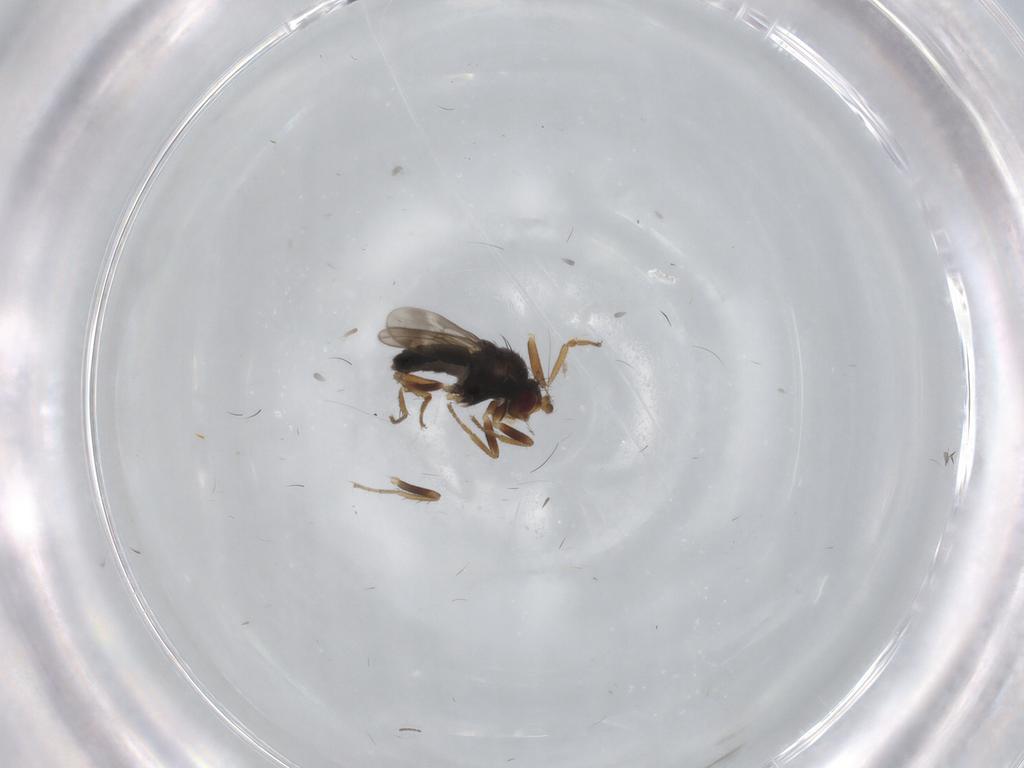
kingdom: Animalia
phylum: Arthropoda
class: Insecta
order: Diptera
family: Sphaeroceridae
